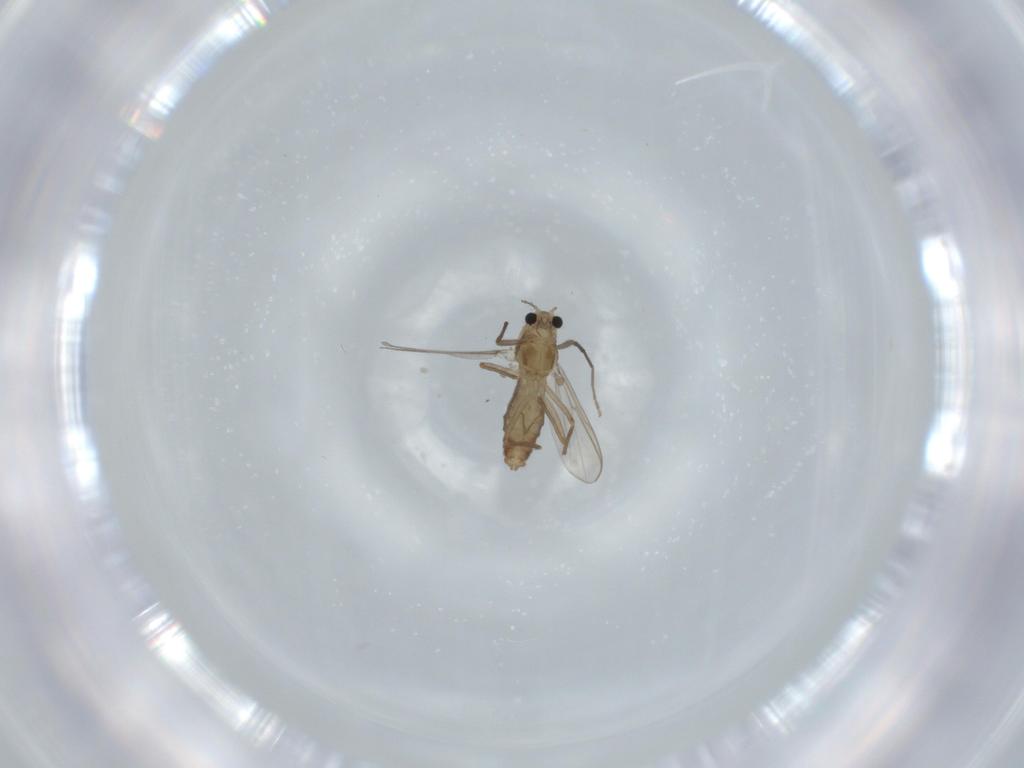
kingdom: Animalia
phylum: Arthropoda
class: Insecta
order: Diptera
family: Chironomidae
